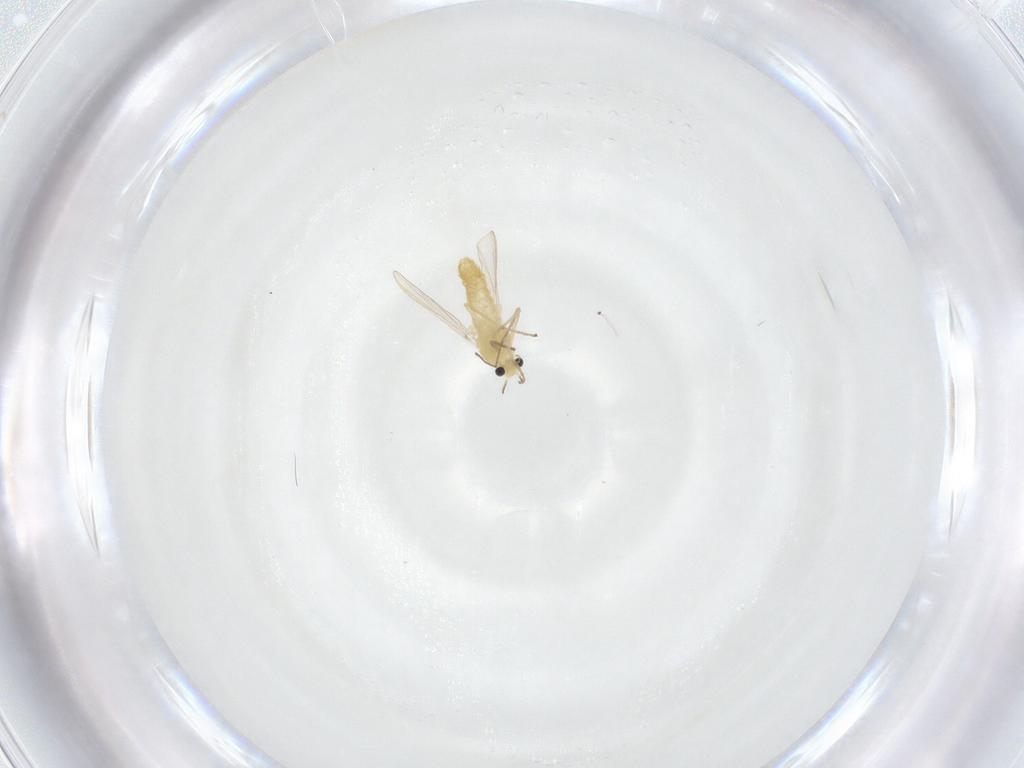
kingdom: Animalia
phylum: Arthropoda
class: Insecta
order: Diptera
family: Chironomidae
